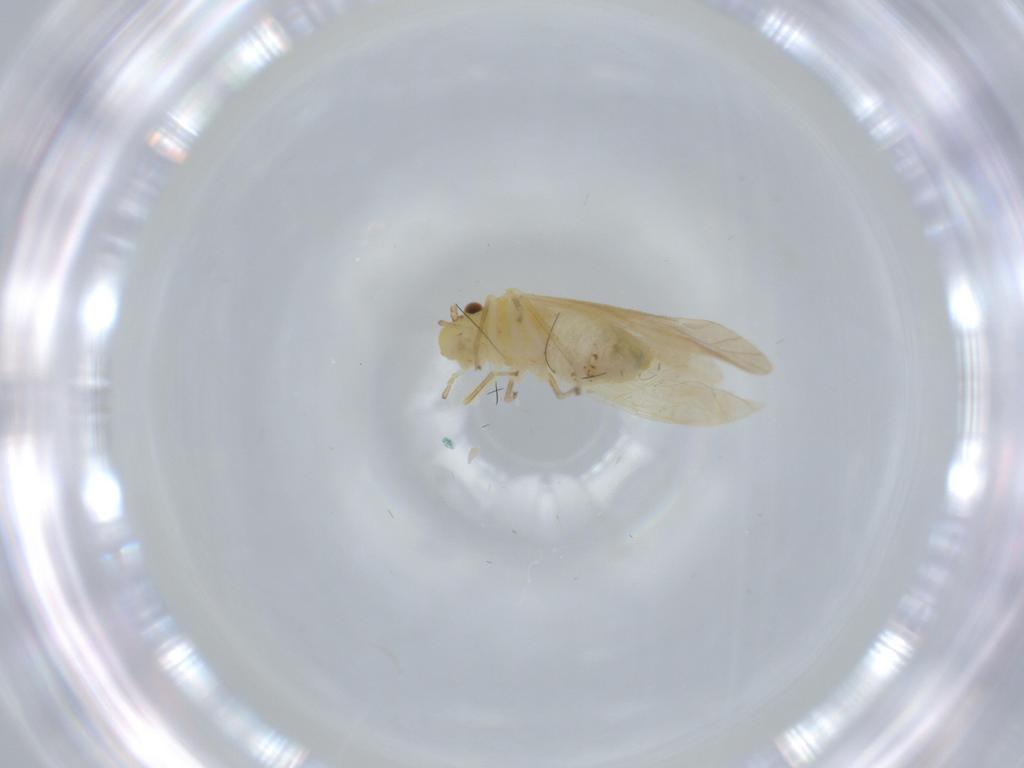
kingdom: Animalia
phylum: Arthropoda
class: Insecta
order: Psocodea
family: Caeciliusidae
